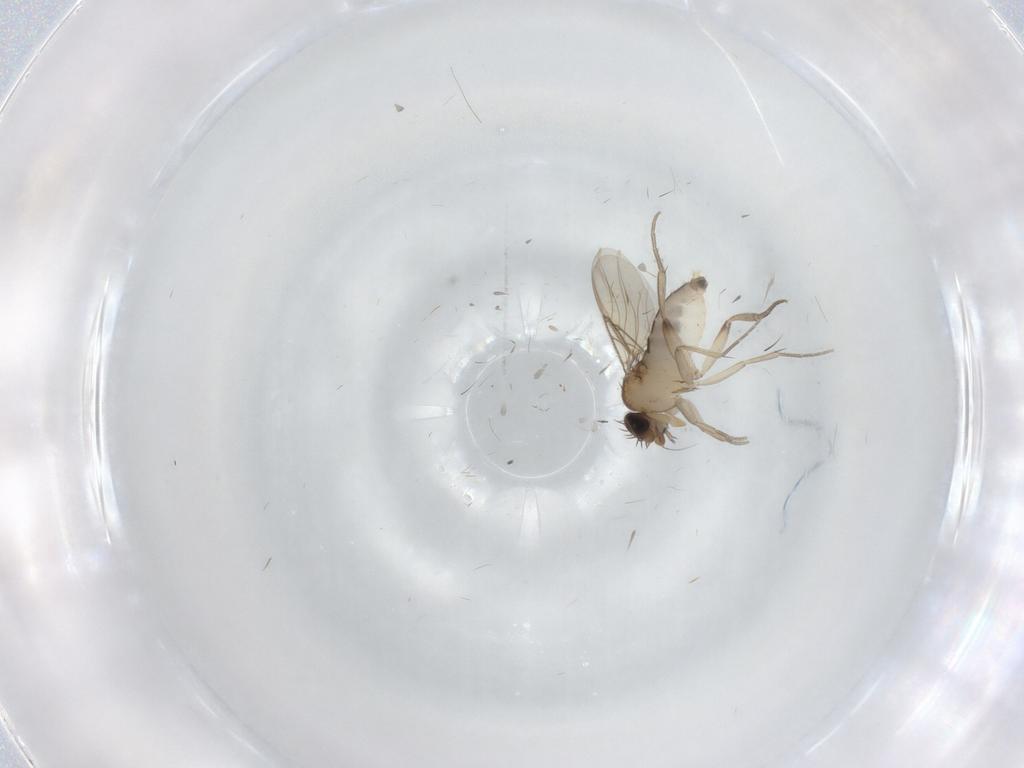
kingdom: Animalia
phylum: Arthropoda
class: Insecta
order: Diptera
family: Phoridae
